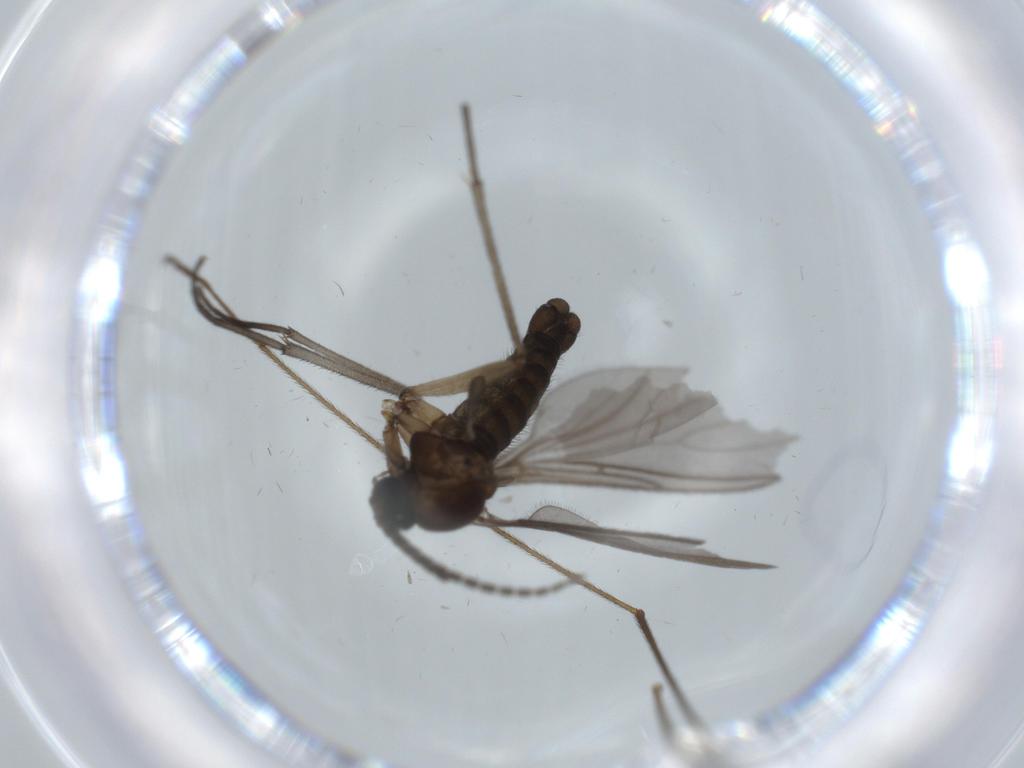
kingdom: Animalia
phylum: Arthropoda
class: Insecta
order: Diptera
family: Sciaridae
